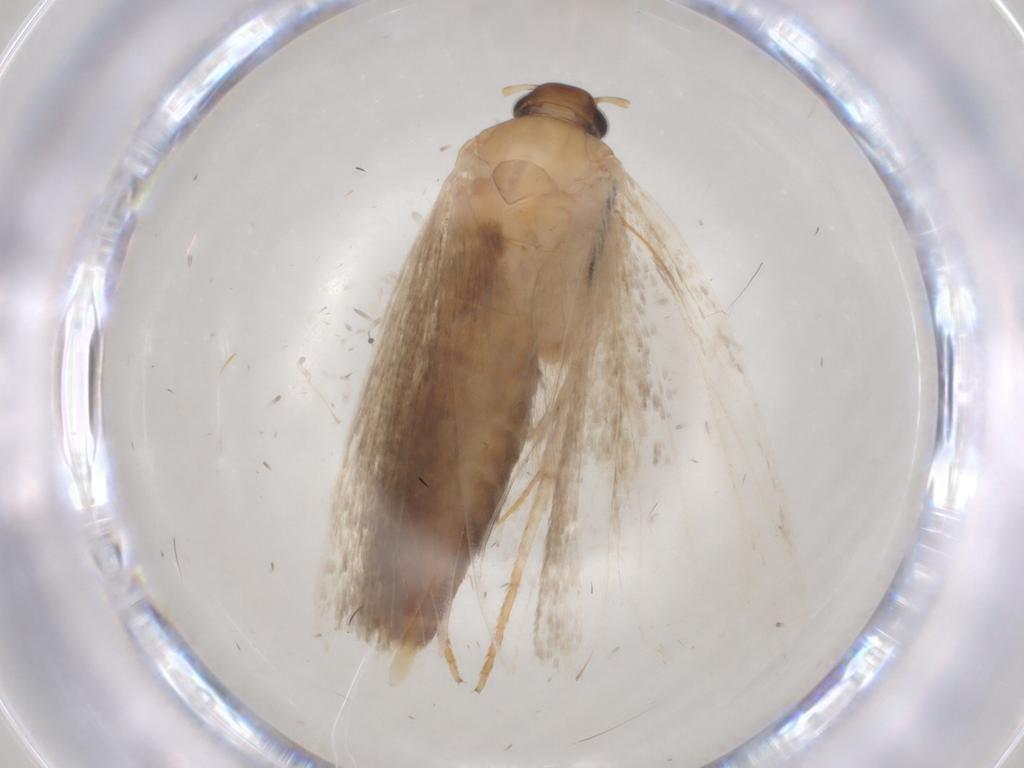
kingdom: Animalia
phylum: Arthropoda
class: Insecta
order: Lepidoptera
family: Gelechiidae
